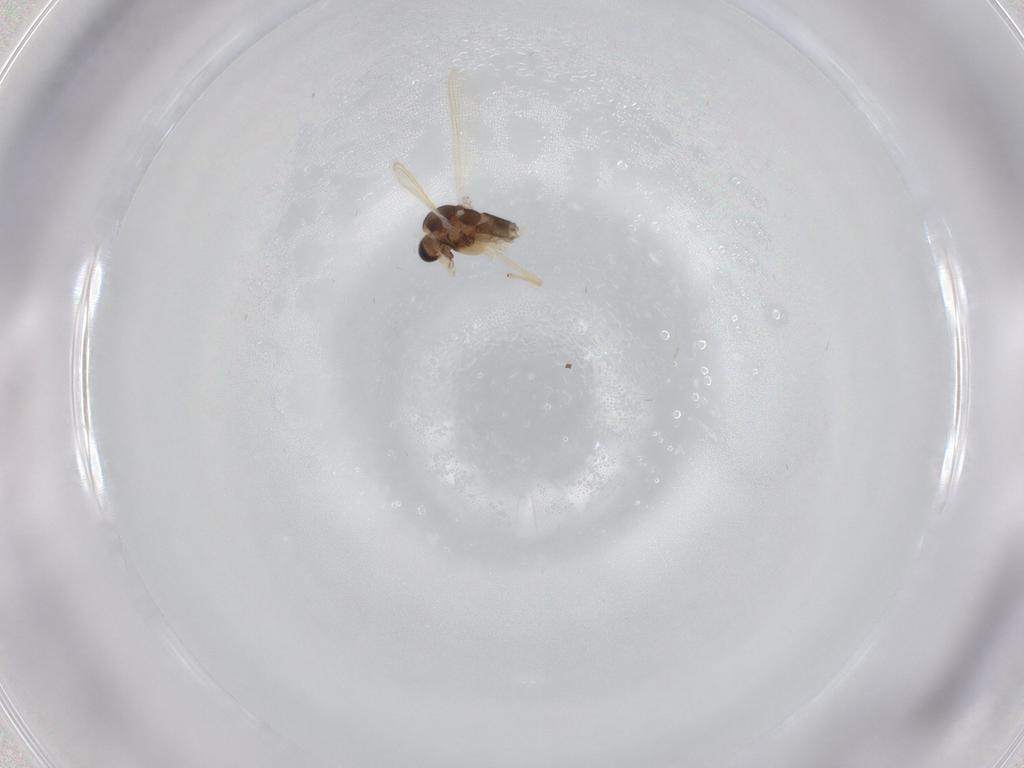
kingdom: Animalia
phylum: Arthropoda
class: Insecta
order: Diptera
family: Chironomidae
